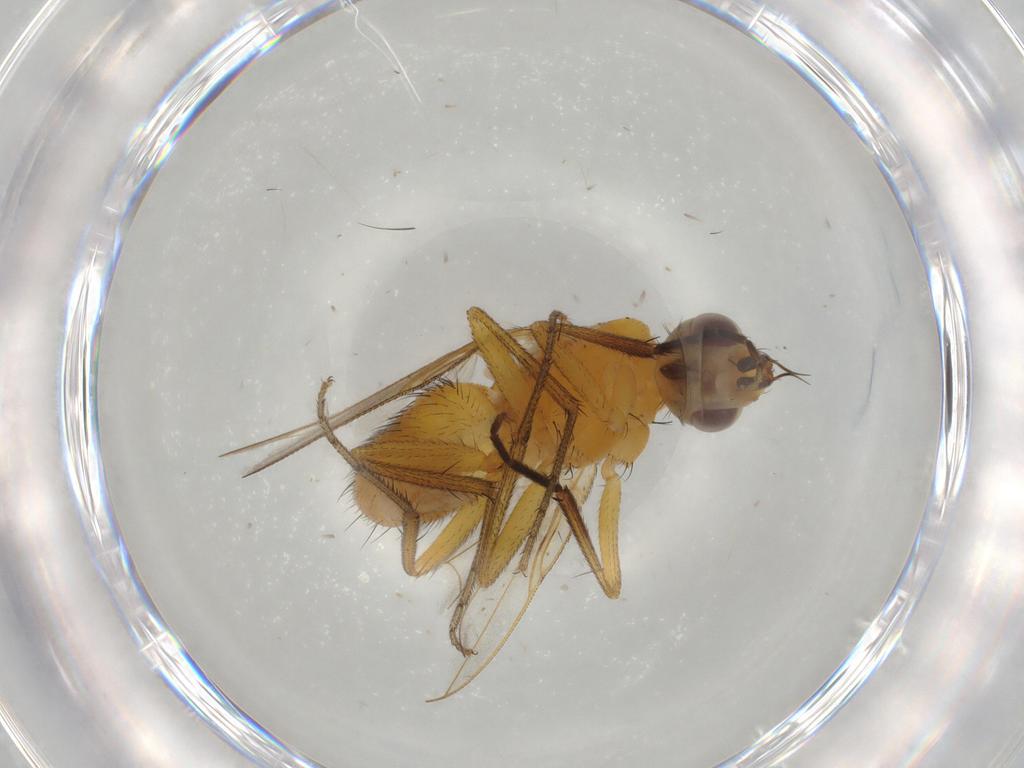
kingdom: Animalia
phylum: Arthropoda
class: Insecta
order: Diptera
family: Muscidae
